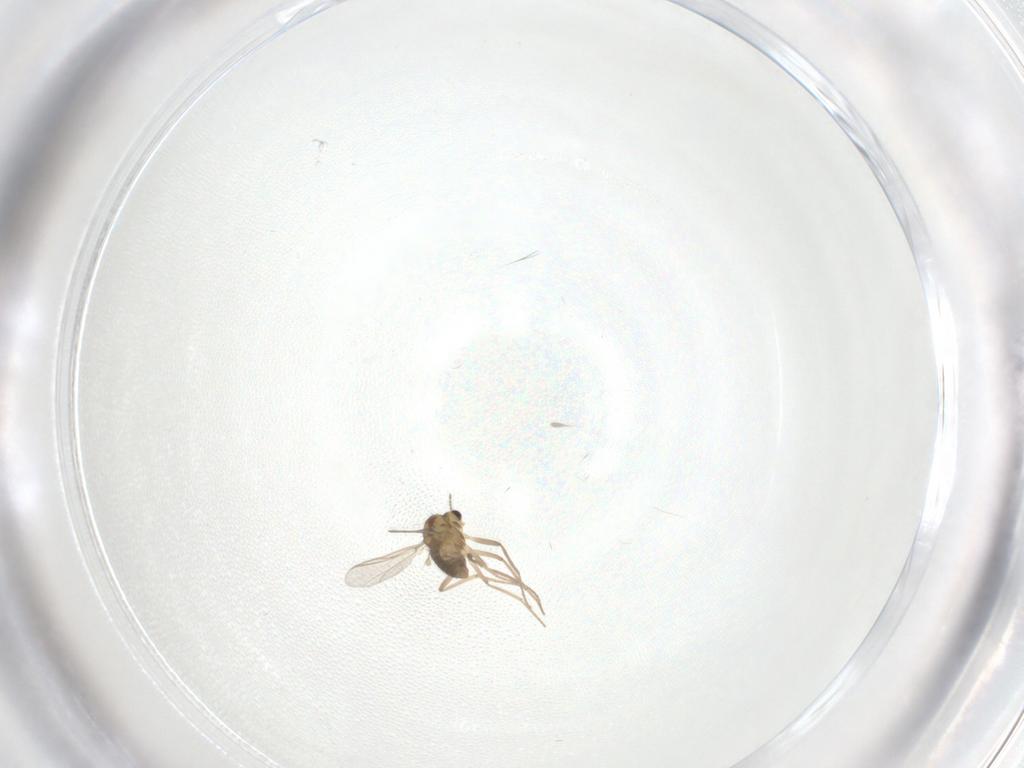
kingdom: Animalia
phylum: Arthropoda
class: Insecta
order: Diptera
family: Chironomidae
